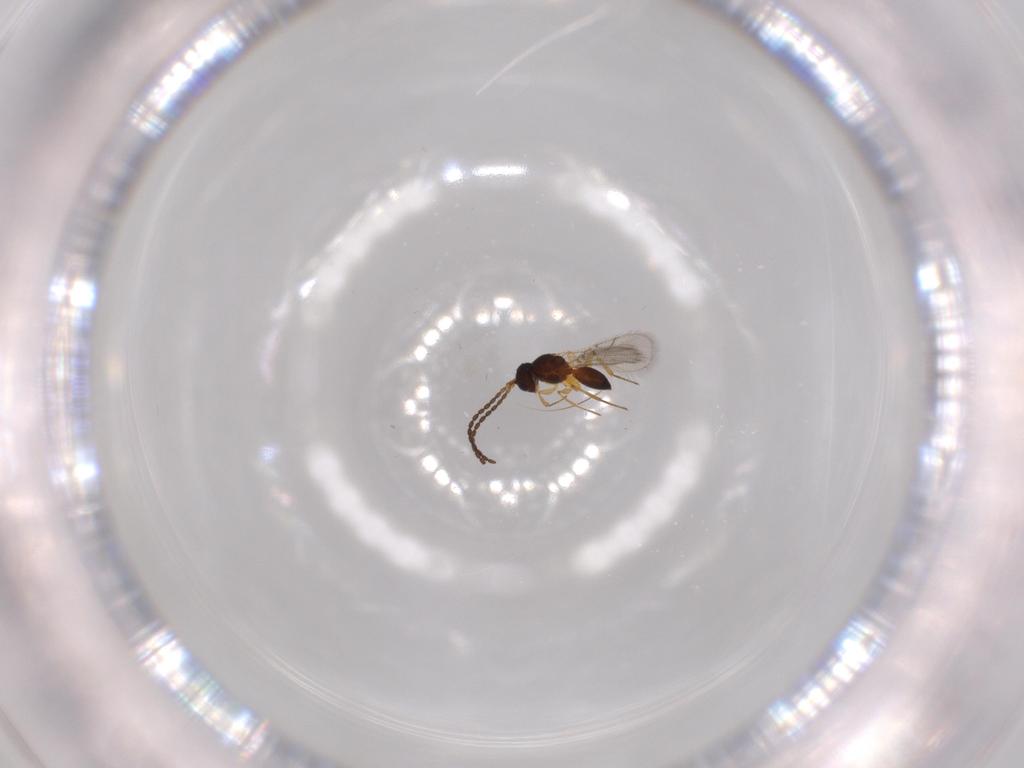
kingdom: Animalia
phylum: Arthropoda
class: Insecta
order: Hymenoptera
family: Figitidae
